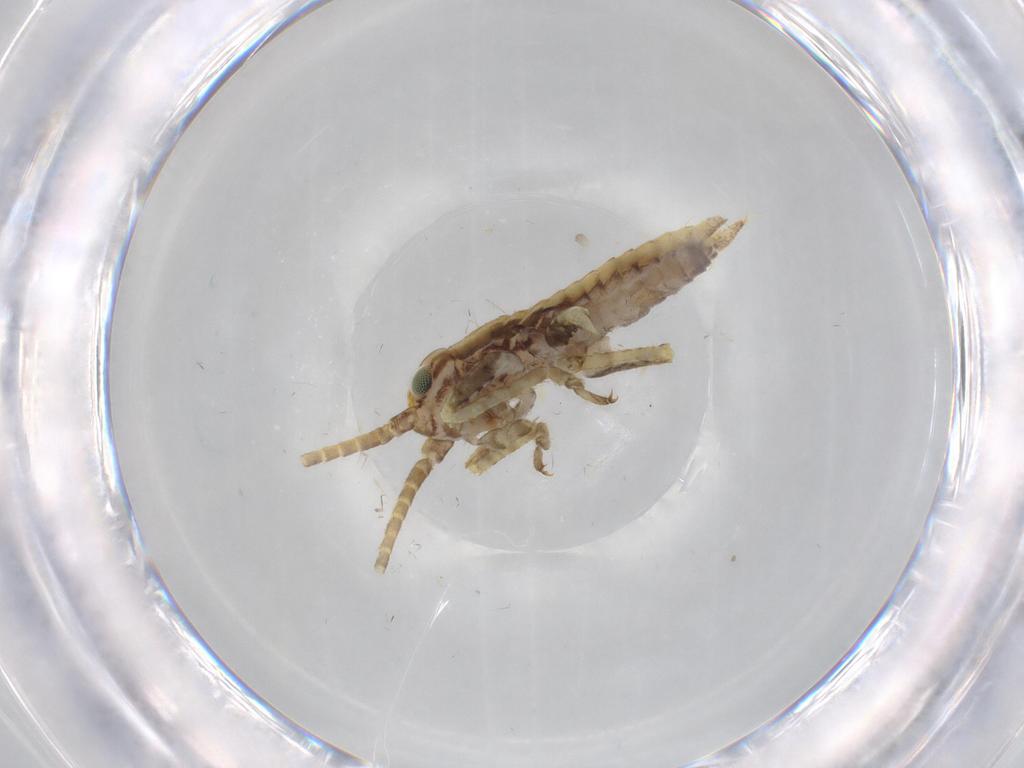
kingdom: Animalia
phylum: Arthropoda
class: Insecta
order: Orthoptera
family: Gryllidae
